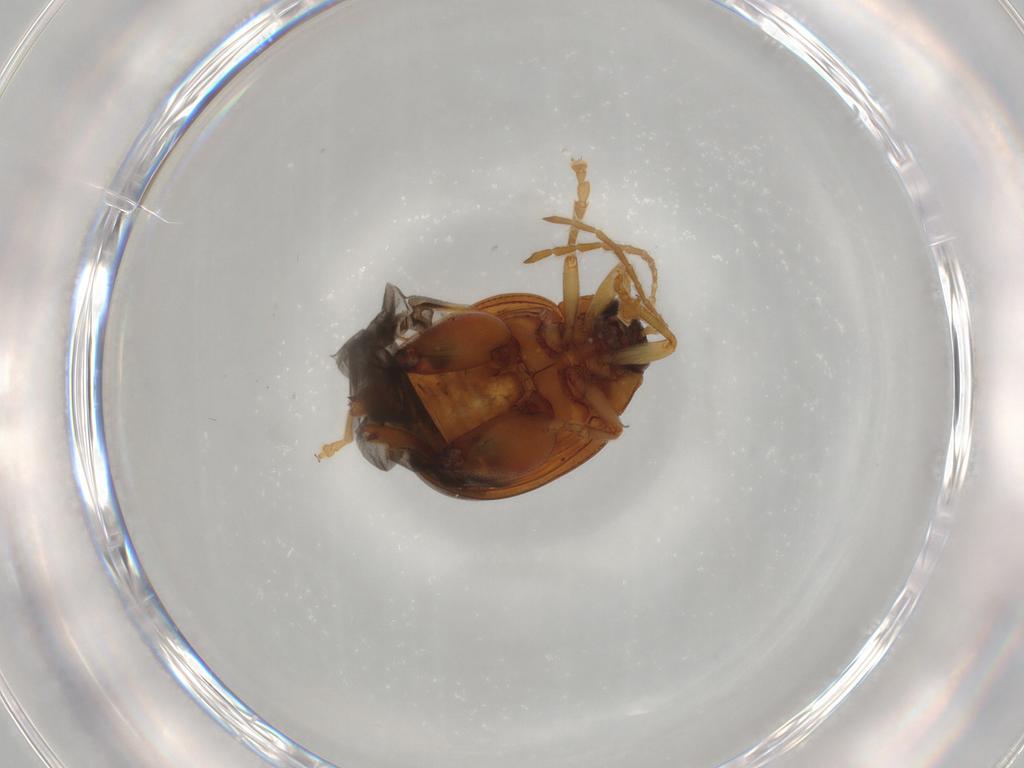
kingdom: Animalia
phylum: Arthropoda
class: Insecta
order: Coleoptera
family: Chrysomelidae
